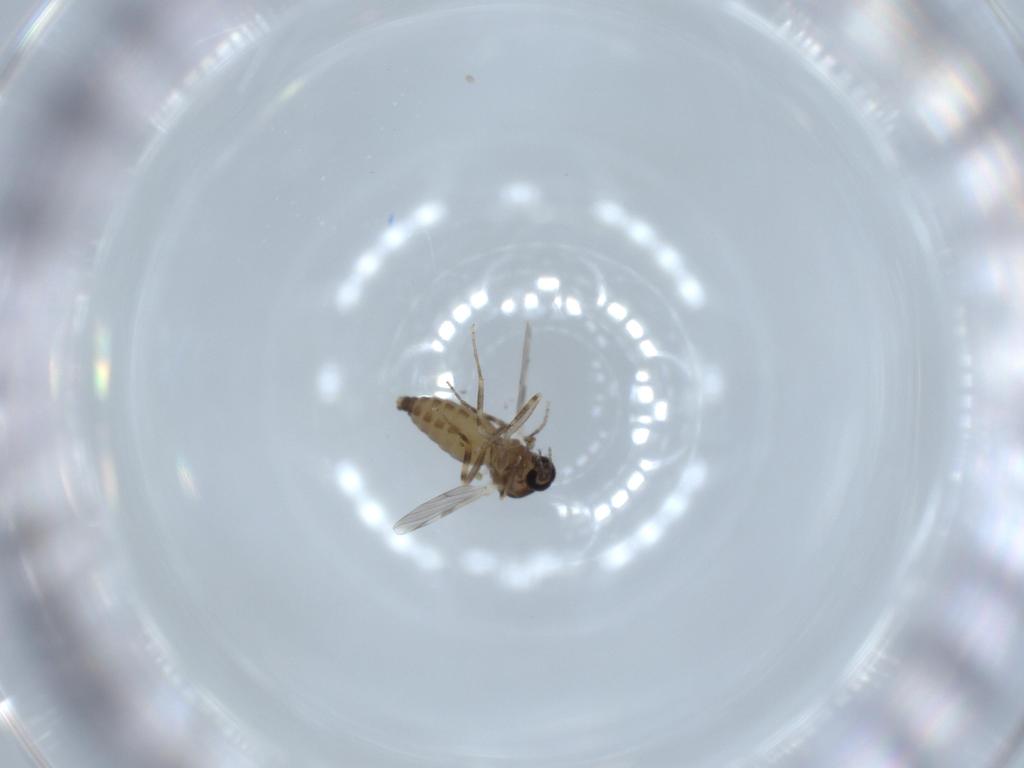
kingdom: Animalia
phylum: Arthropoda
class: Insecta
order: Diptera
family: Ceratopogonidae
